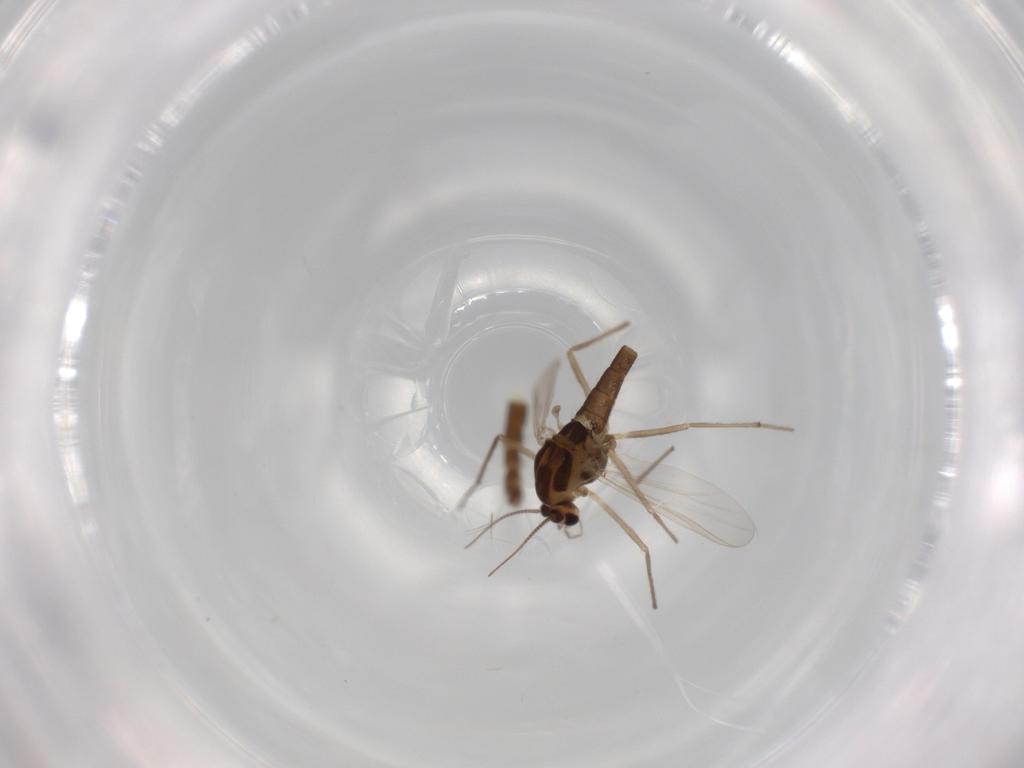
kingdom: Animalia
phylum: Arthropoda
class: Insecta
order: Diptera
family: Chironomidae
